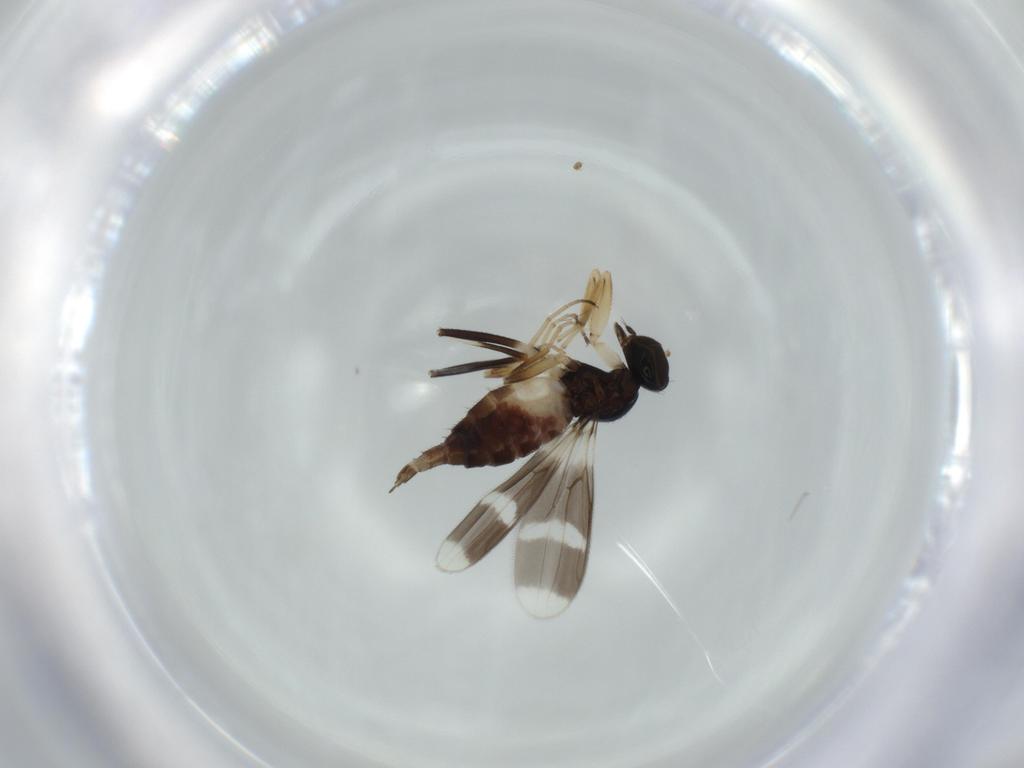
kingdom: Animalia
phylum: Arthropoda
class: Insecta
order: Diptera
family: Hybotidae
